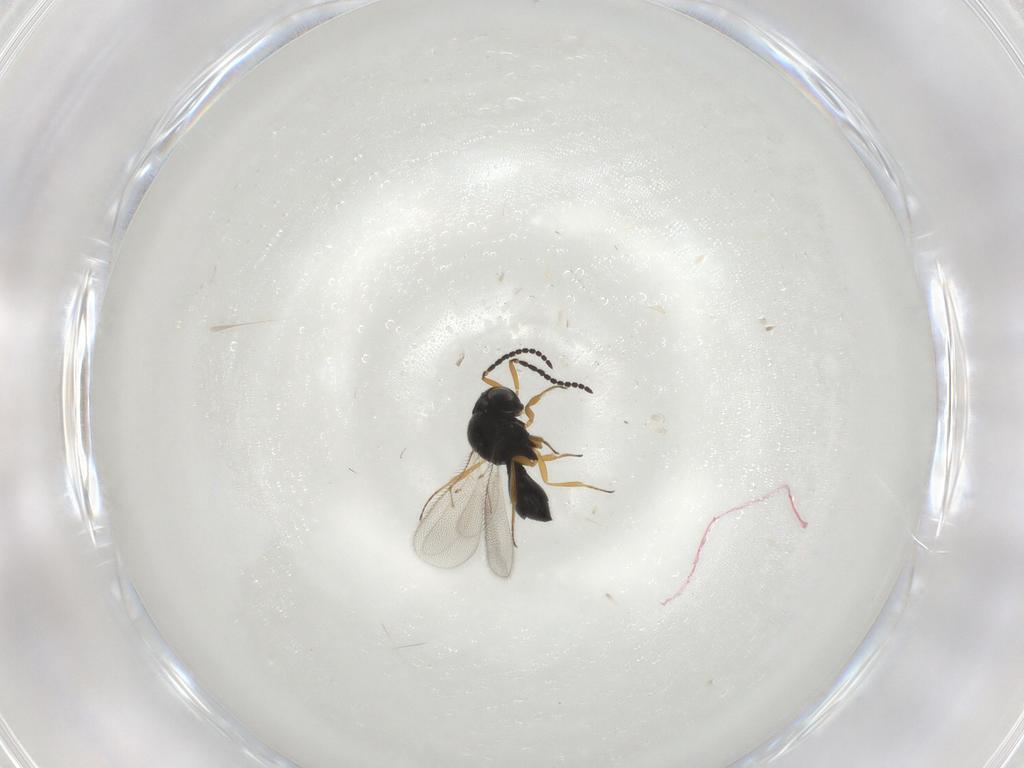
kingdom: Animalia
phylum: Arthropoda
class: Insecta
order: Hymenoptera
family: Scelionidae
